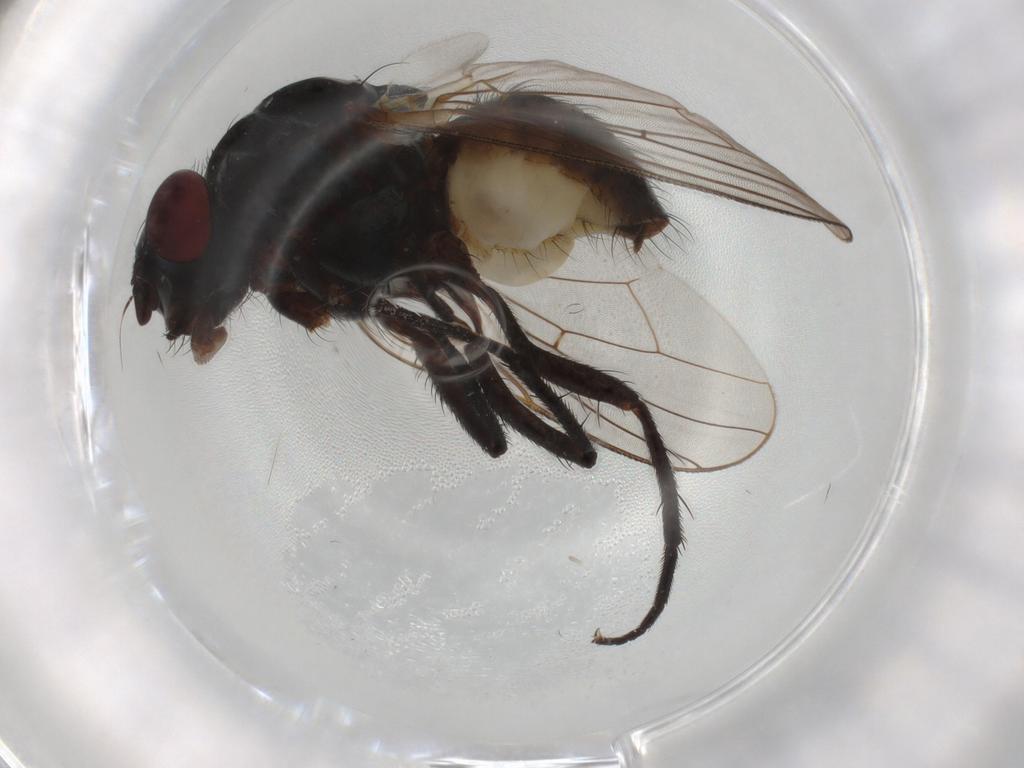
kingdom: Animalia
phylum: Arthropoda
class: Insecta
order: Diptera
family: Anthomyiidae
